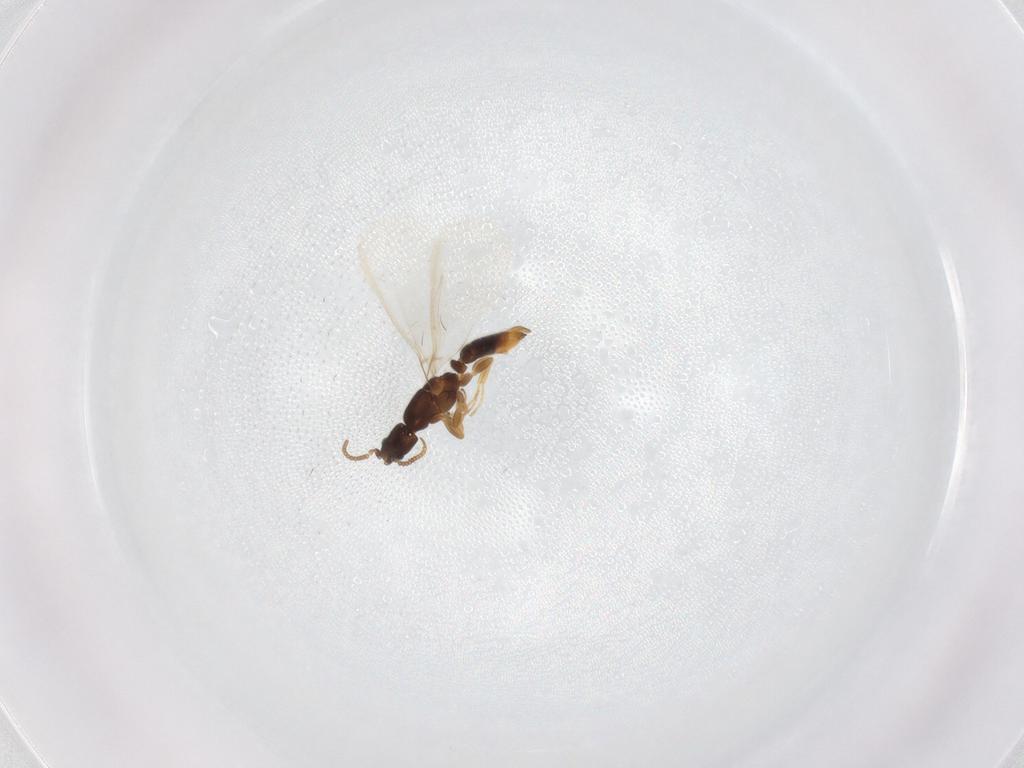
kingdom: Animalia
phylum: Arthropoda
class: Insecta
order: Hymenoptera
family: Formicidae
